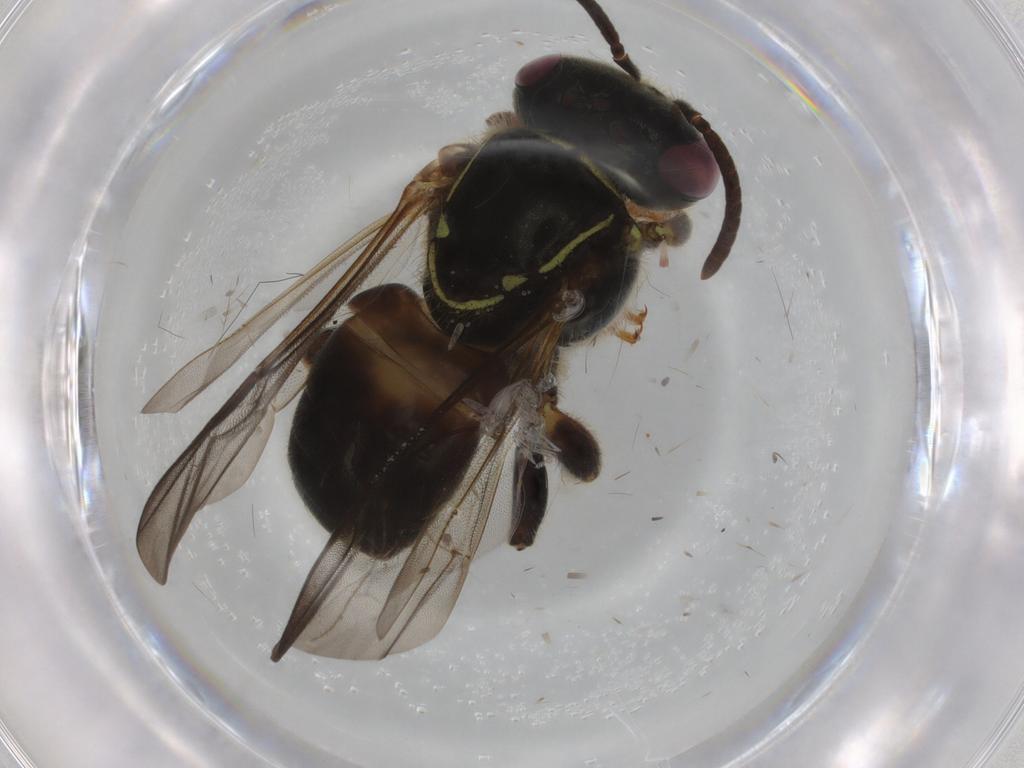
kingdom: Animalia
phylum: Arthropoda
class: Insecta
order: Hymenoptera
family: Apidae
